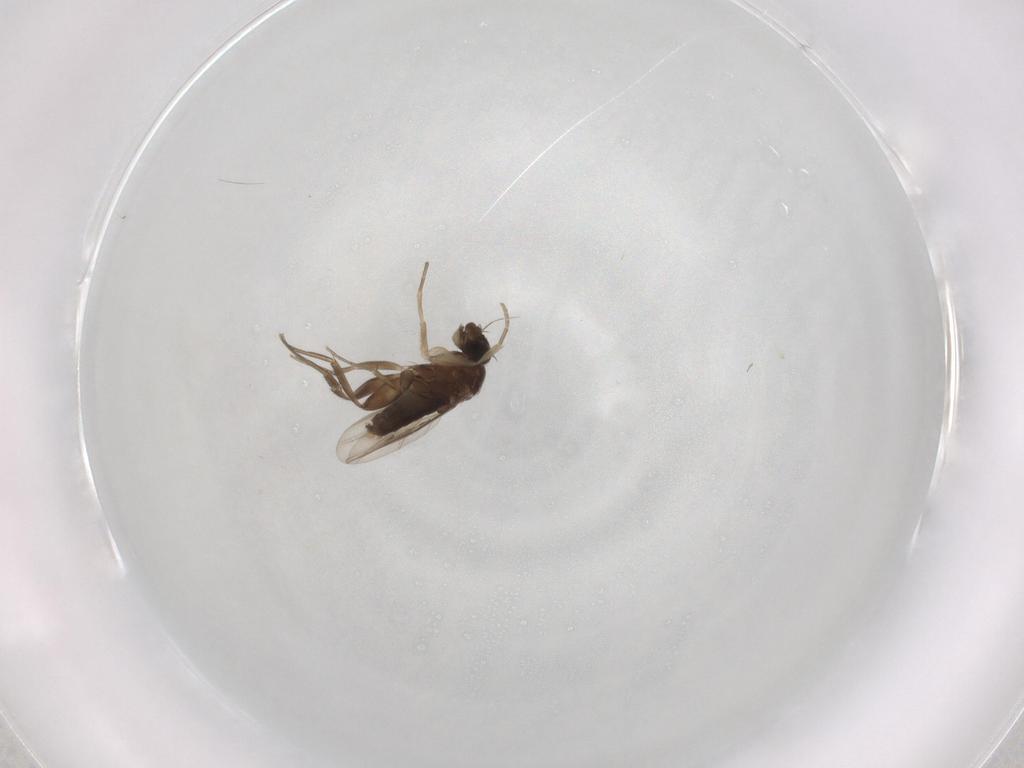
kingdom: Animalia
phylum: Arthropoda
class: Insecta
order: Diptera
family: Phoridae
